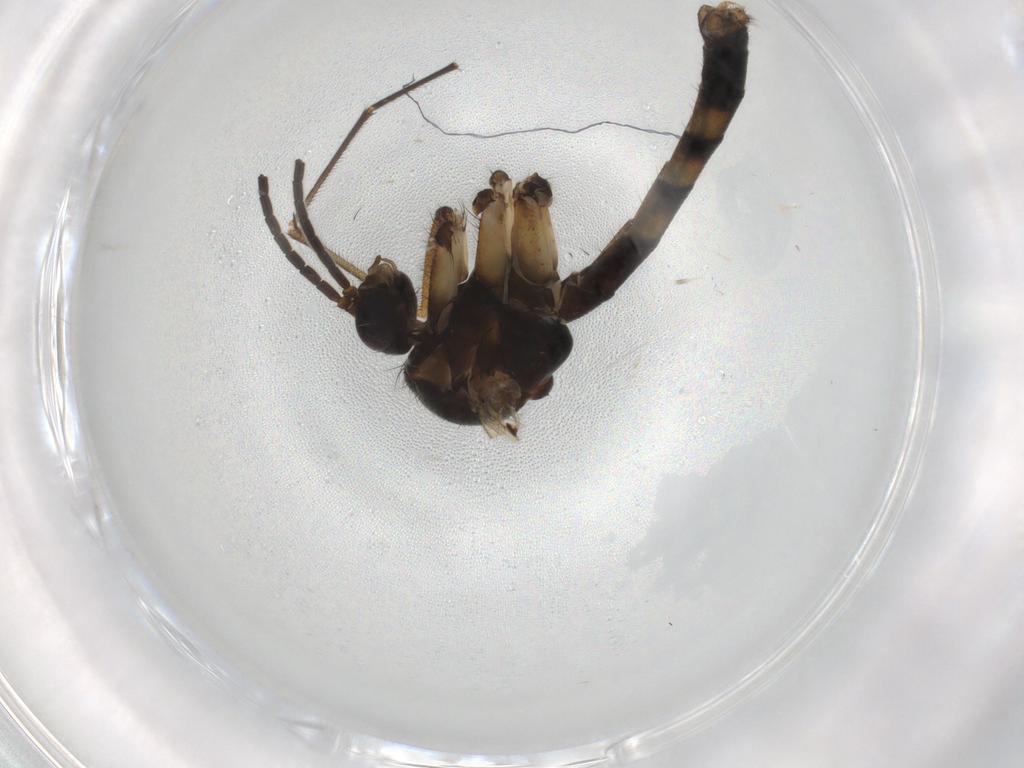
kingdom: Animalia
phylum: Arthropoda
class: Insecta
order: Diptera
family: Sciaridae
